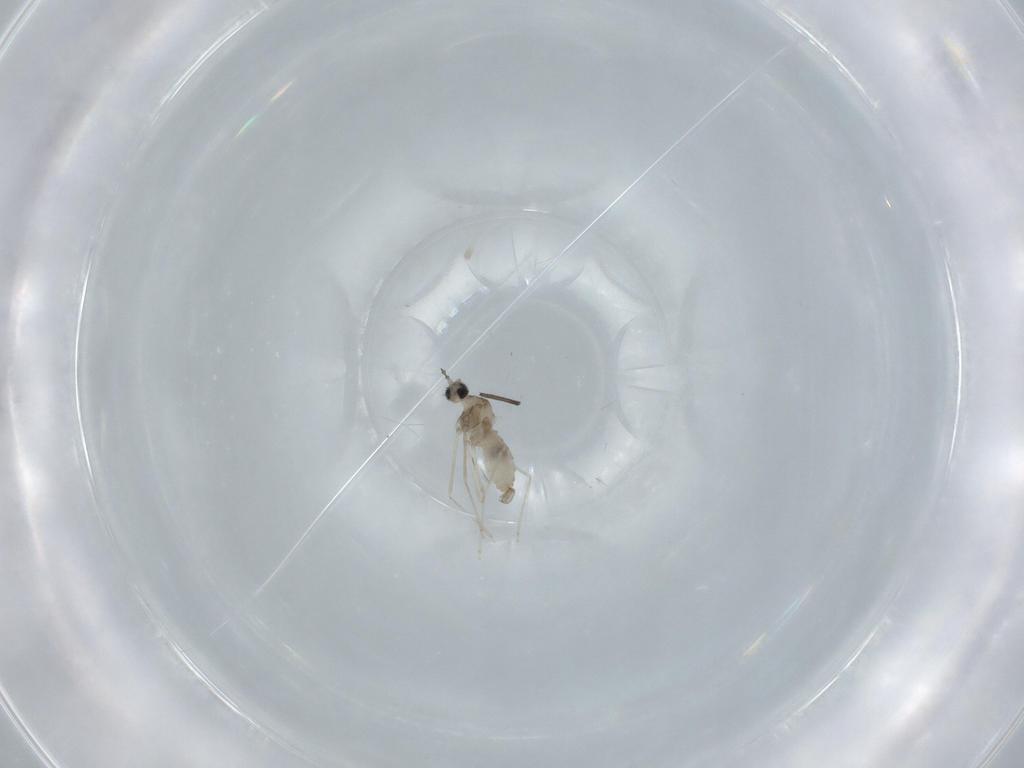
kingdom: Animalia
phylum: Arthropoda
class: Insecta
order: Diptera
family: Cecidomyiidae
